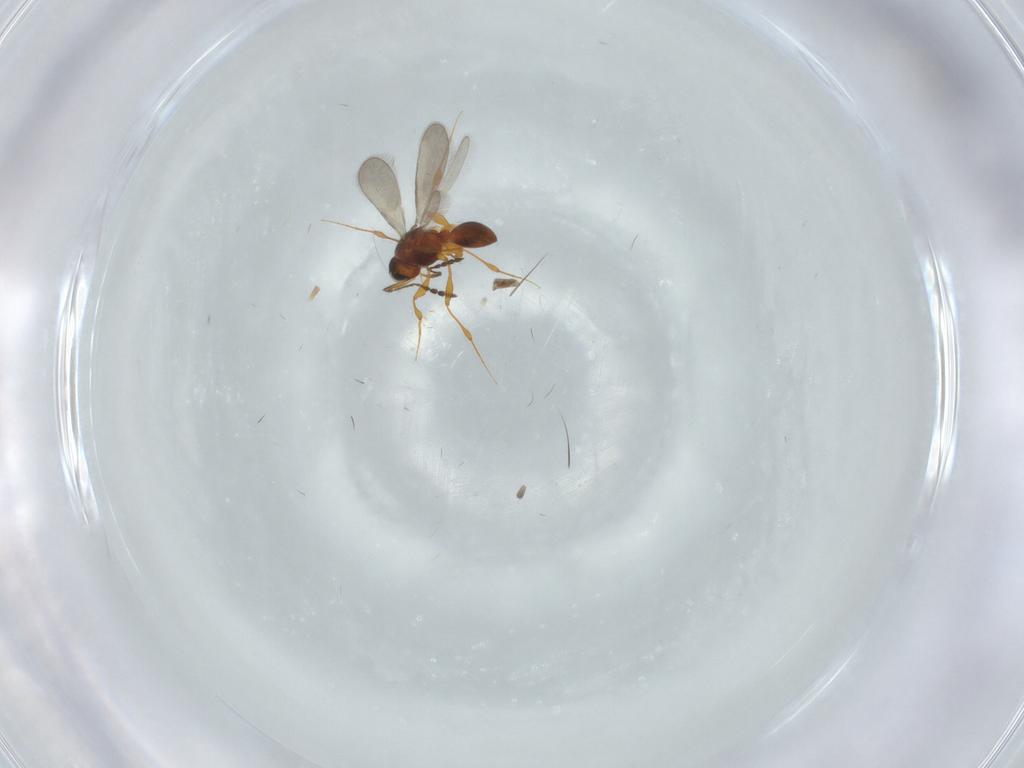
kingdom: Animalia
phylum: Arthropoda
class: Insecta
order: Hymenoptera
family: Platygastridae
